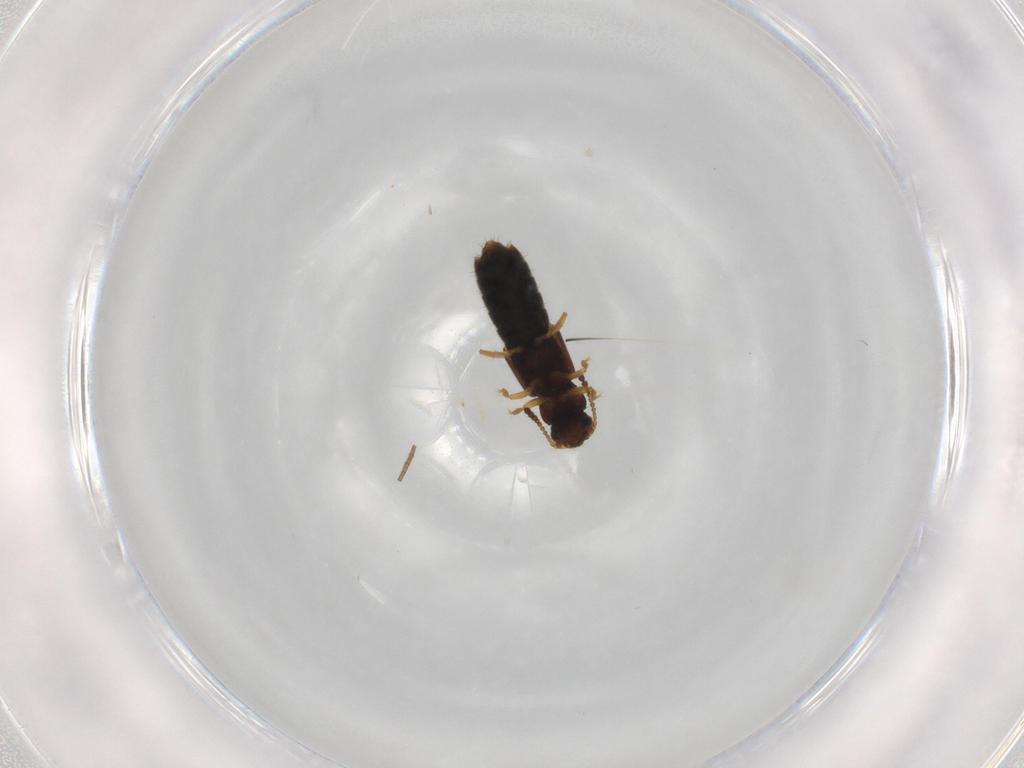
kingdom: Animalia
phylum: Arthropoda
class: Insecta
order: Coleoptera
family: Staphylinidae
